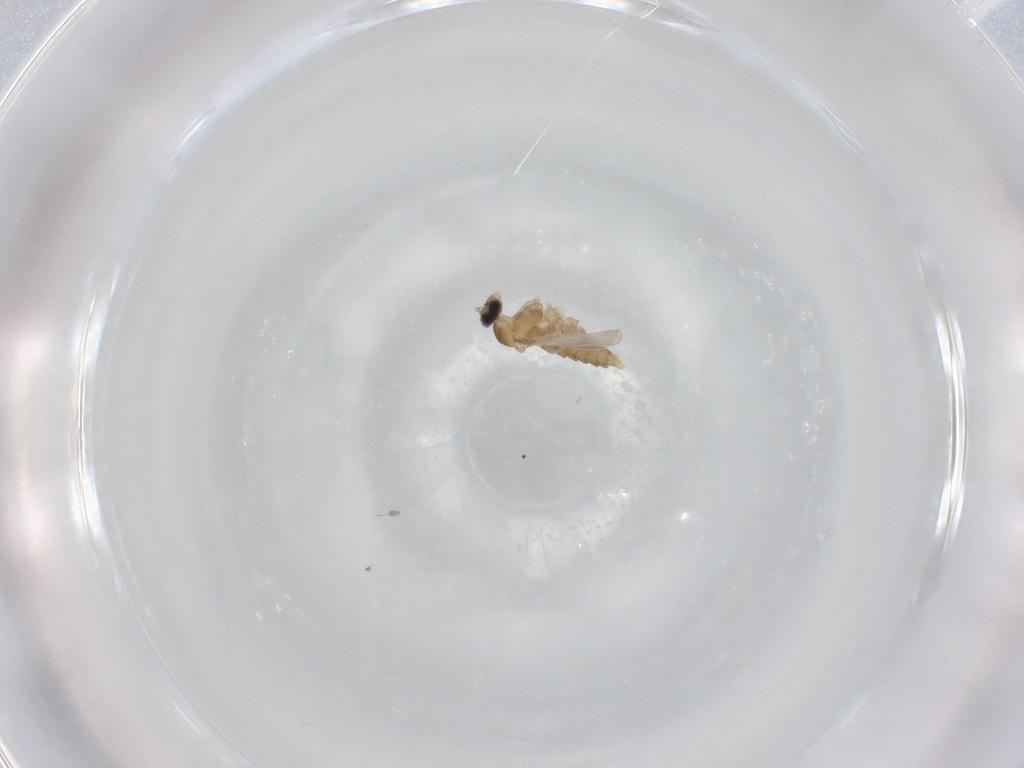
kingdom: Animalia
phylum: Arthropoda
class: Insecta
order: Diptera
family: Cecidomyiidae
